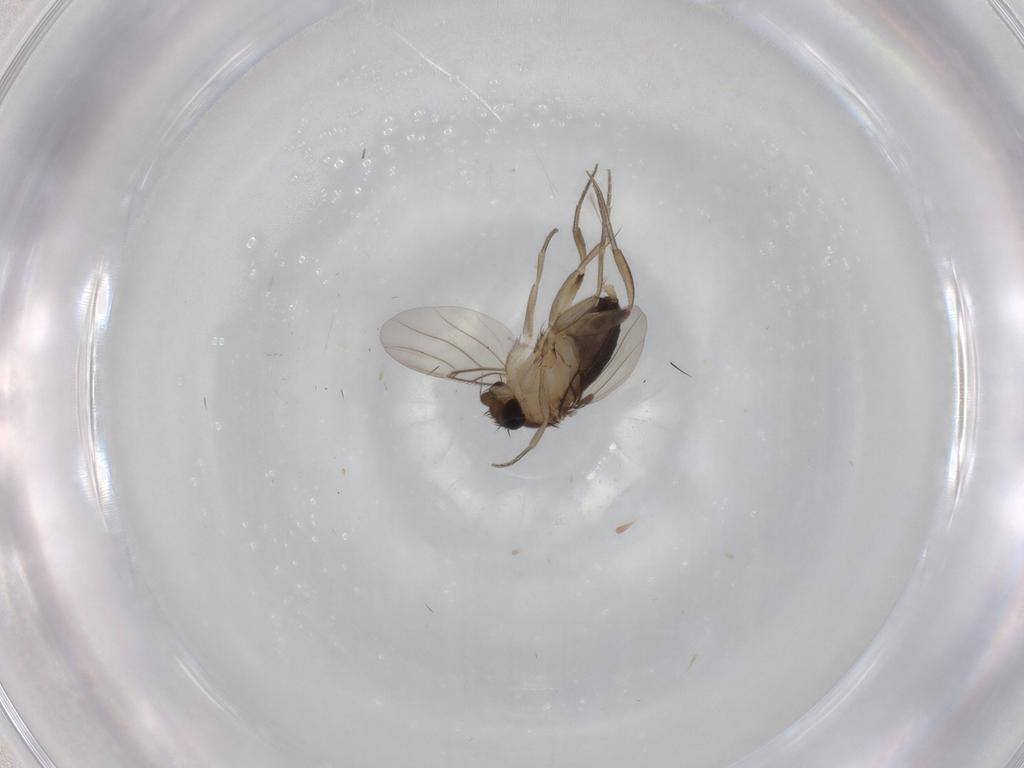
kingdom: Animalia
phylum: Arthropoda
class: Insecta
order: Diptera
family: Phoridae
